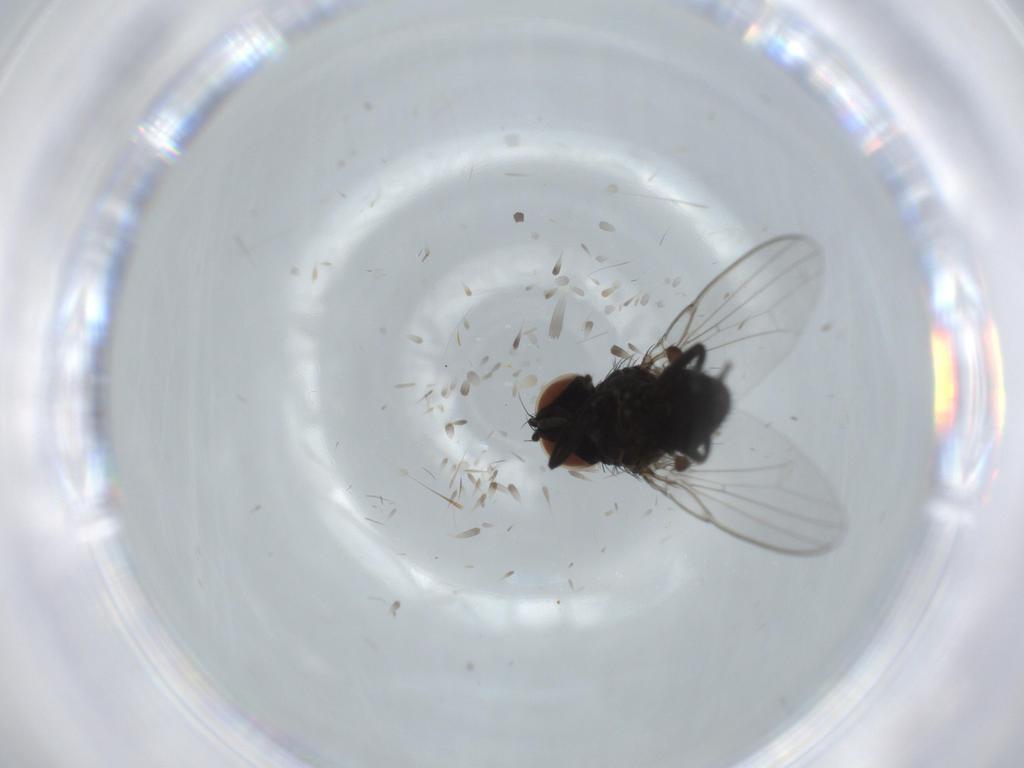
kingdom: Animalia
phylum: Arthropoda
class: Insecta
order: Diptera
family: Milichiidae
